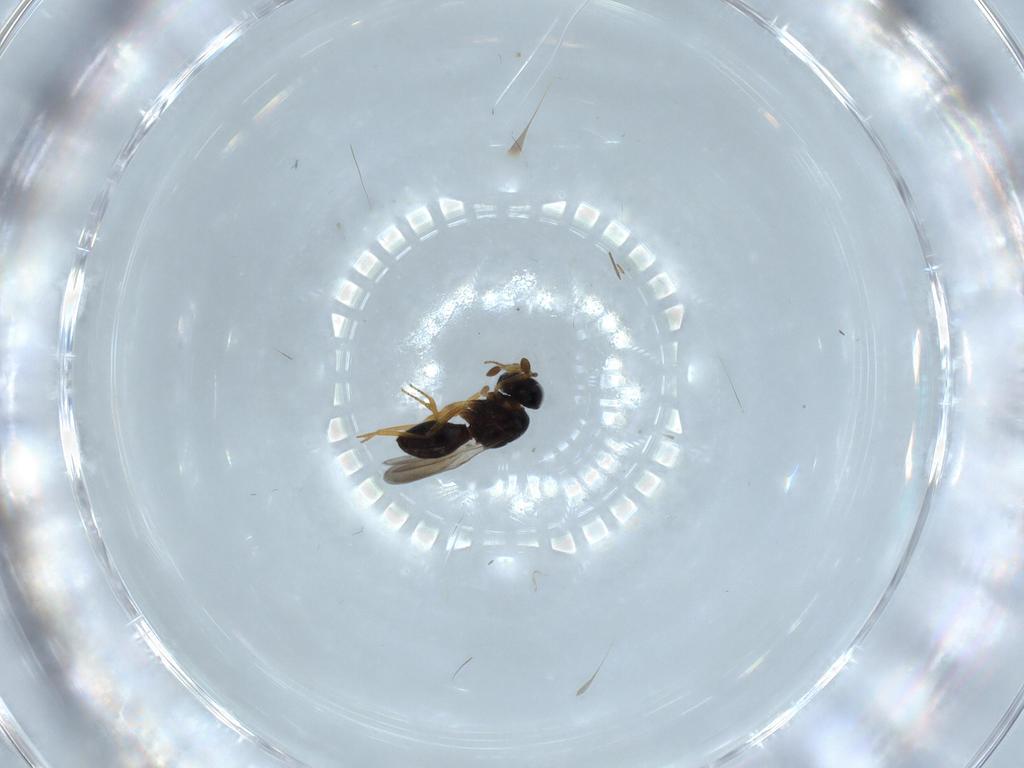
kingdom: Animalia
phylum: Arthropoda
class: Insecta
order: Hymenoptera
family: Scelionidae
